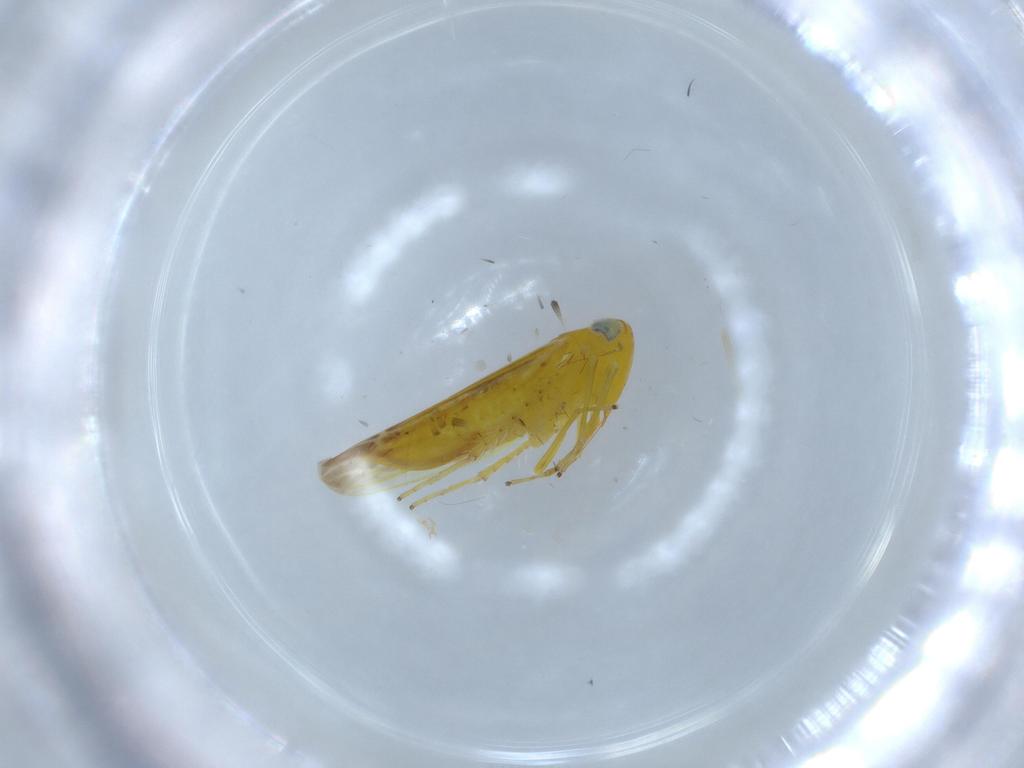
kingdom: Animalia
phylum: Arthropoda
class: Insecta
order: Hemiptera
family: Cicadellidae
